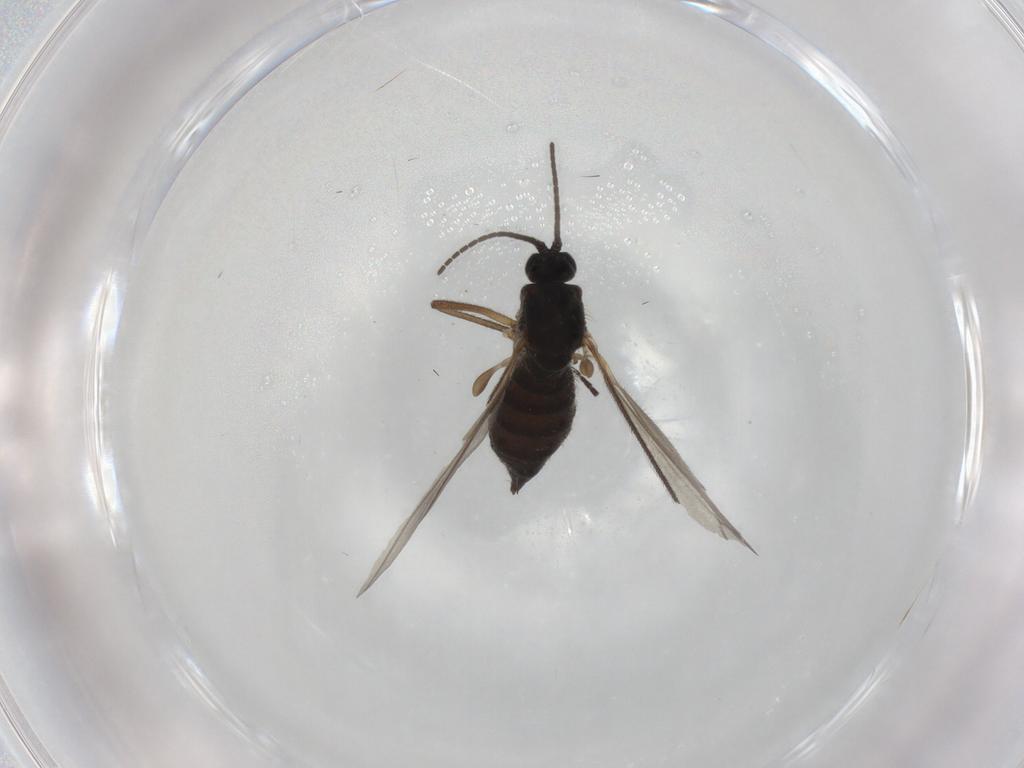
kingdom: Animalia
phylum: Arthropoda
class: Insecta
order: Diptera
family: Sciaridae
